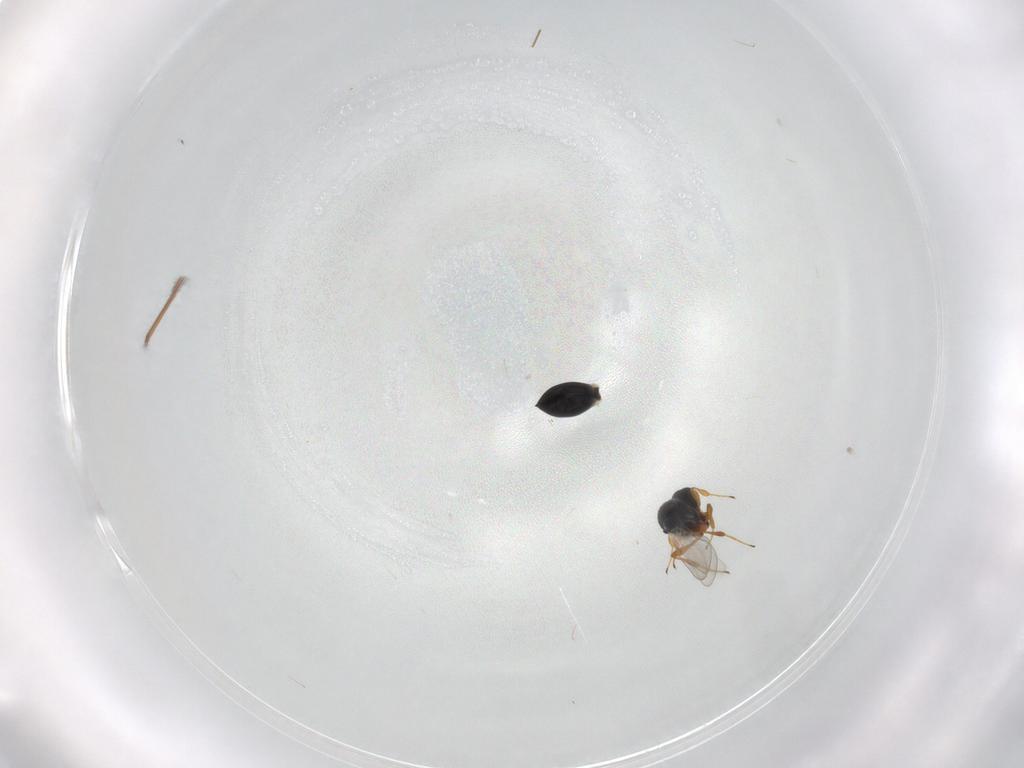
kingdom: Animalia
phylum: Arthropoda
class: Insecta
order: Hymenoptera
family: Platygastridae
